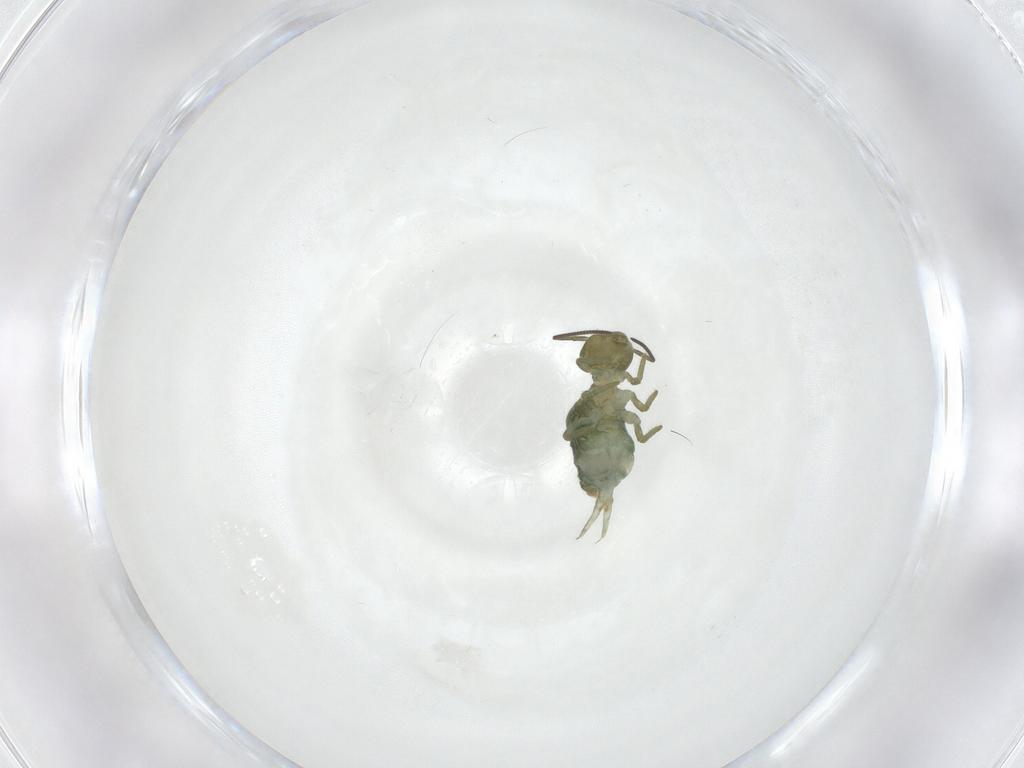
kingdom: Animalia
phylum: Arthropoda
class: Collembola
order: Symphypleona
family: Sminthuridae
